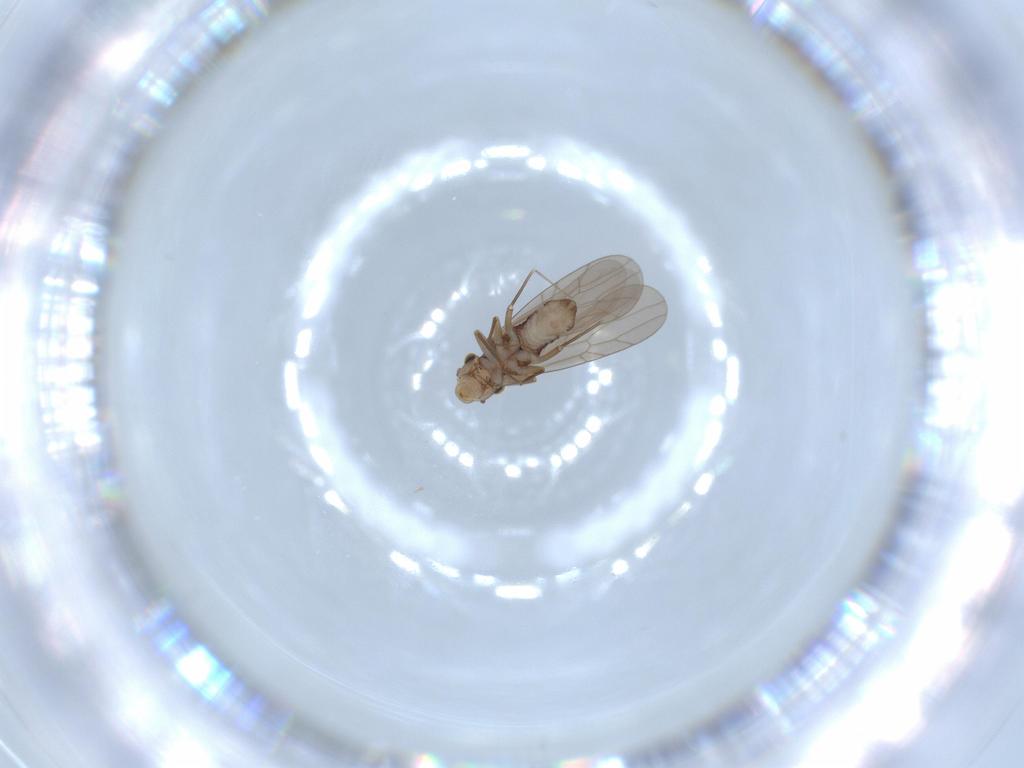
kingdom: Animalia
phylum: Arthropoda
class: Insecta
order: Psocodea
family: Lepidopsocidae
